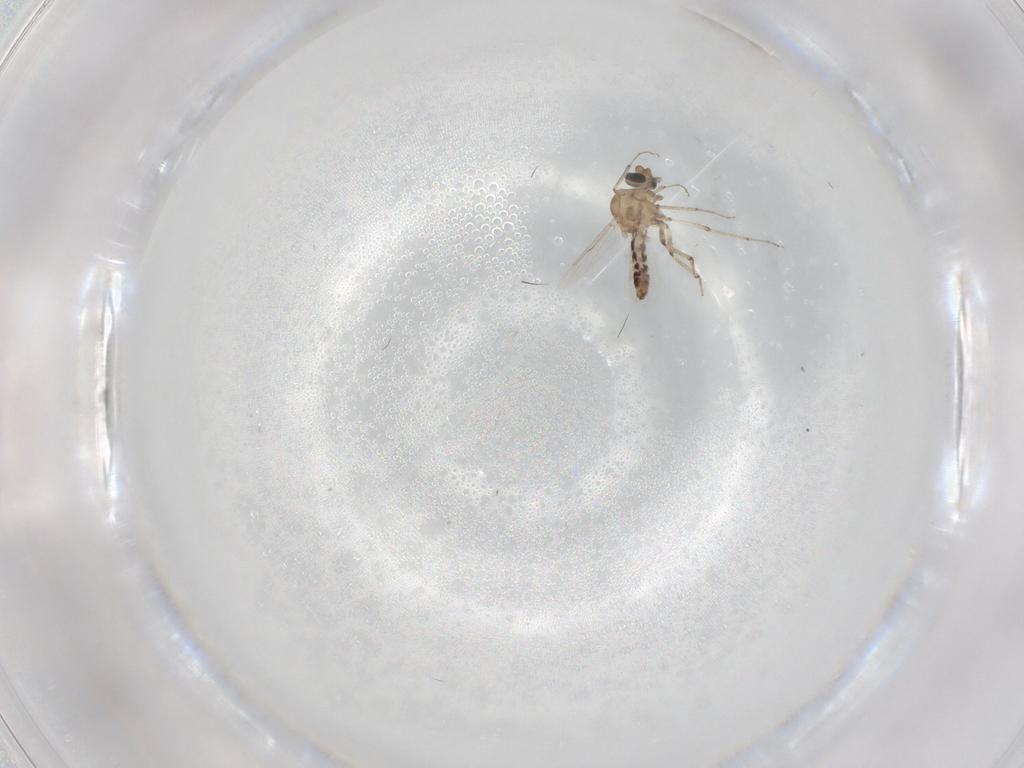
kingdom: Animalia
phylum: Arthropoda
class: Insecta
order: Diptera
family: Ceratopogonidae
